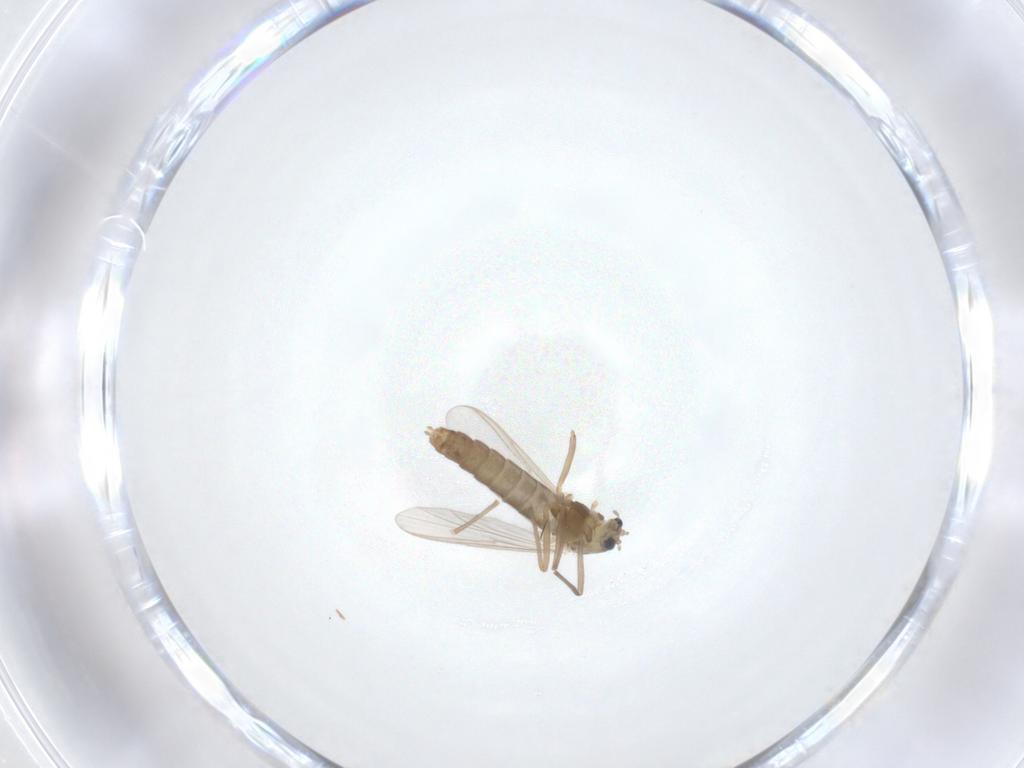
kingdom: Animalia
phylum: Arthropoda
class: Insecta
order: Diptera
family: Chironomidae
